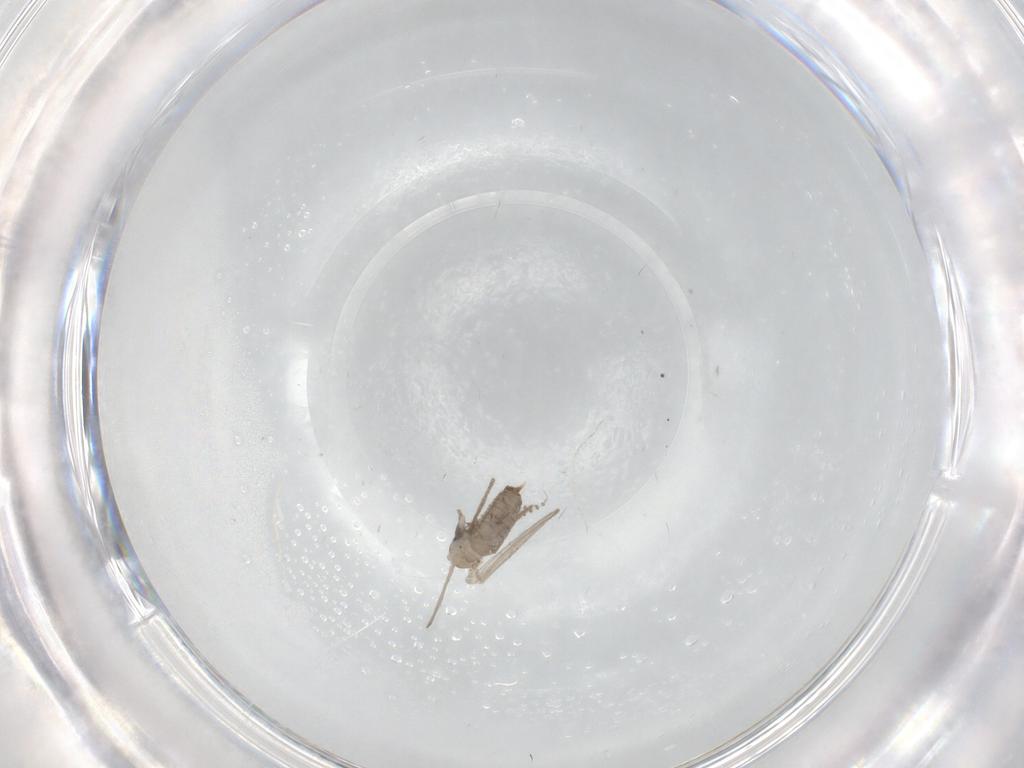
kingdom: Animalia
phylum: Arthropoda
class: Insecta
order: Diptera
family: Psychodidae
